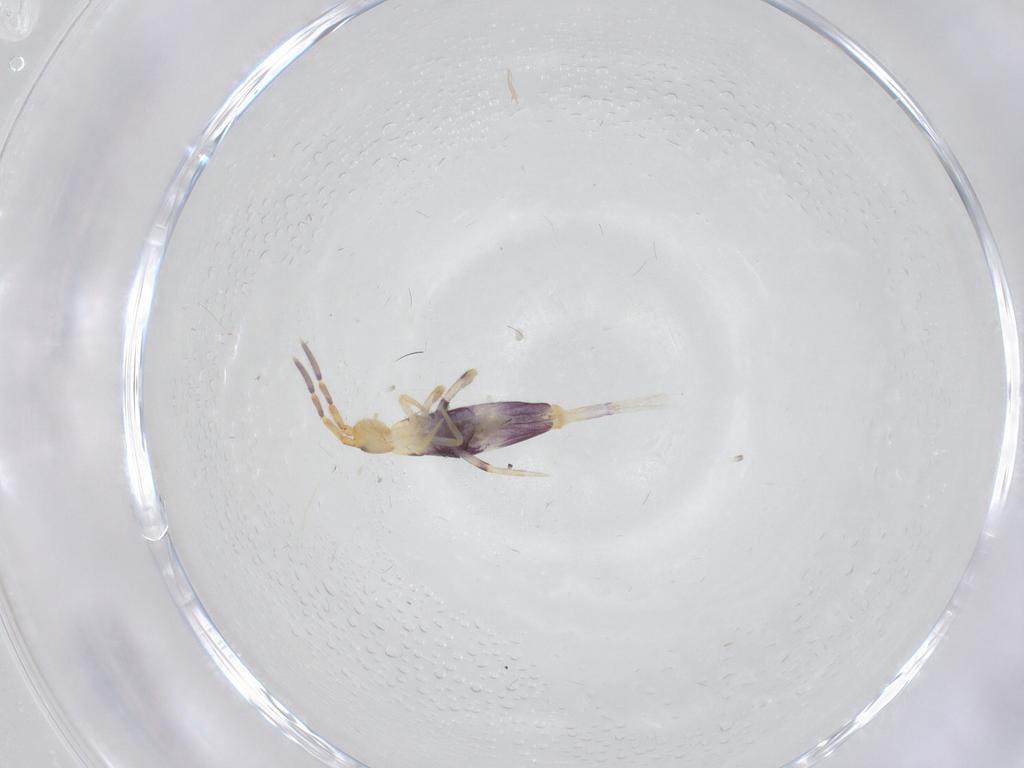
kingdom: Animalia
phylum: Arthropoda
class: Collembola
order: Entomobryomorpha
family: Entomobryidae
